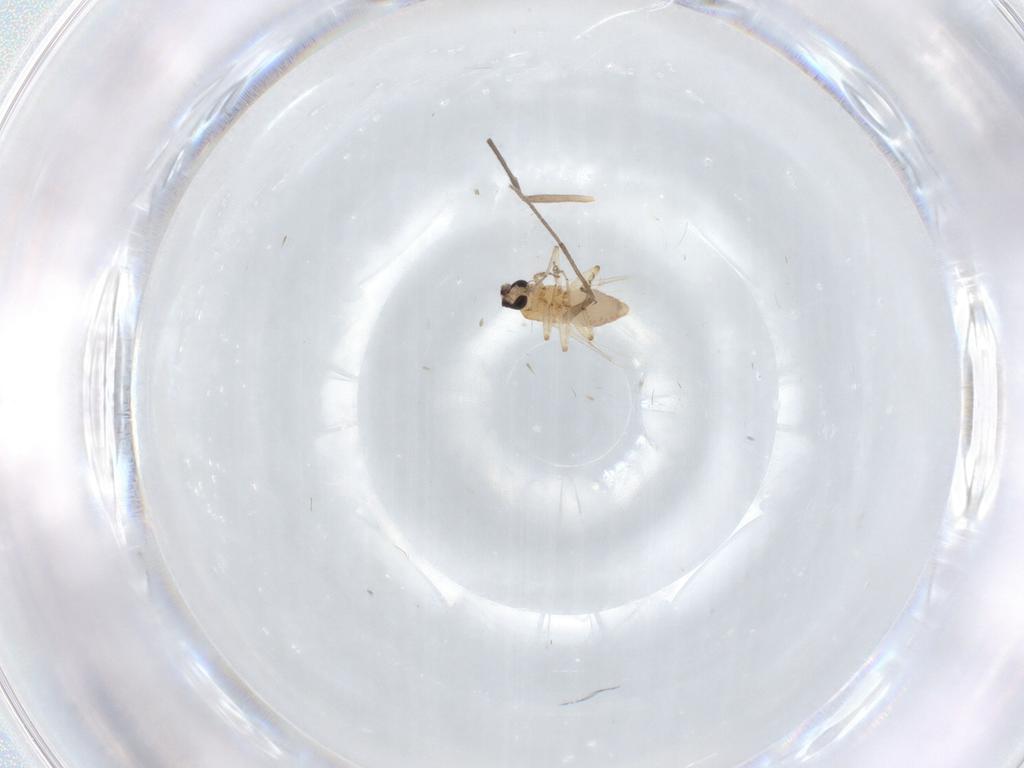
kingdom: Animalia
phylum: Arthropoda
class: Insecta
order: Diptera
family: Ceratopogonidae
